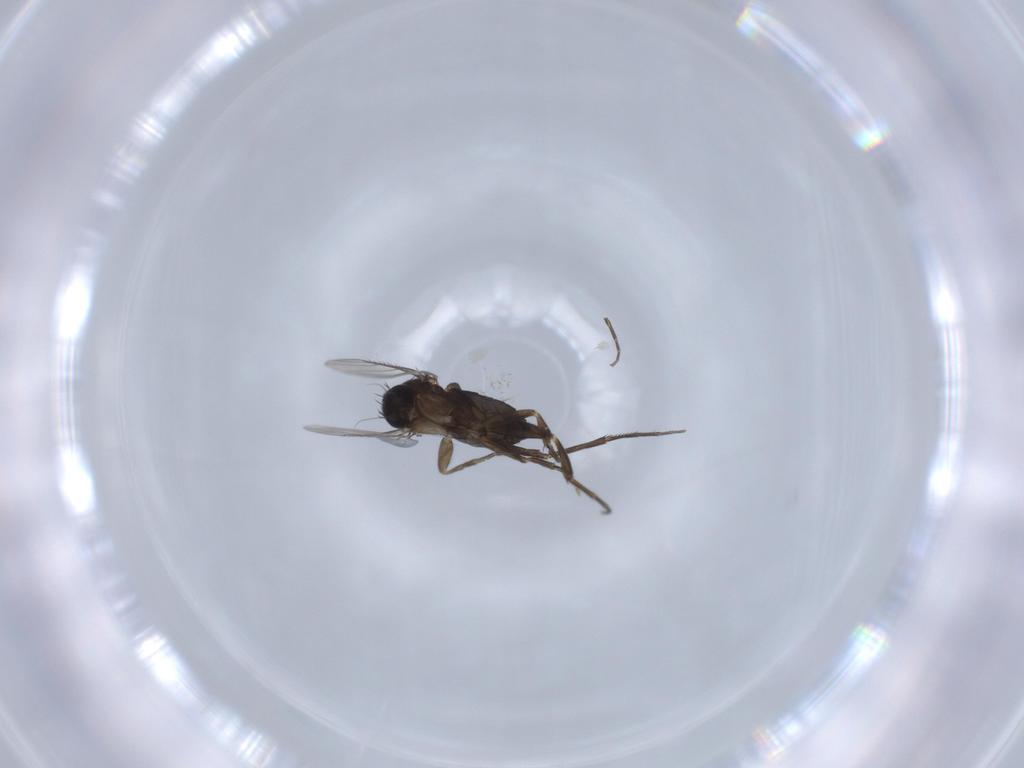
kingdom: Animalia
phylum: Arthropoda
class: Insecta
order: Diptera
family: Phoridae
